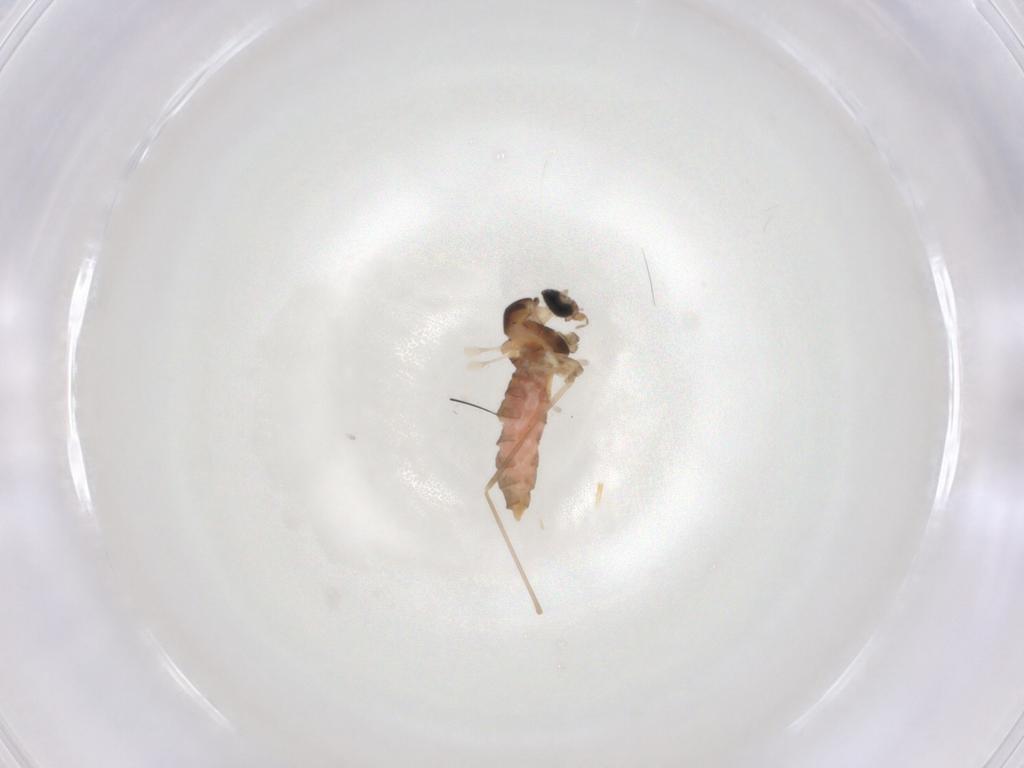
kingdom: Animalia
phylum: Arthropoda
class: Insecta
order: Diptera
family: Cecidomyiidae
